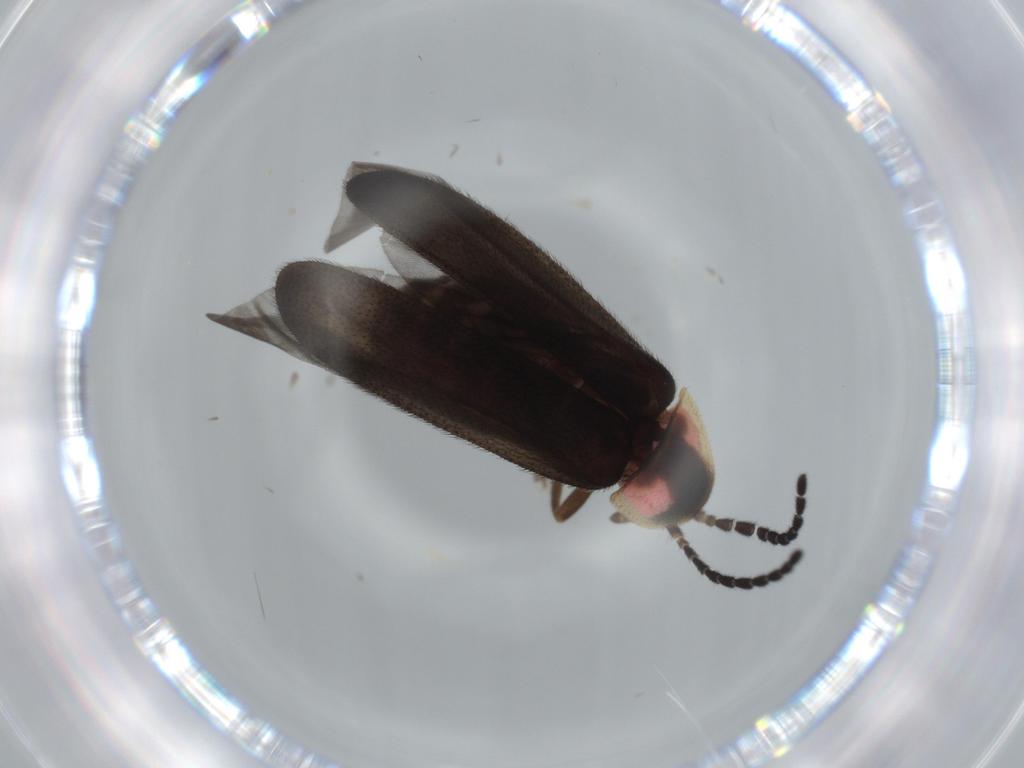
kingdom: Animalia
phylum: Arthropoda
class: Insecta
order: Coleoptera
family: Lampyridae
